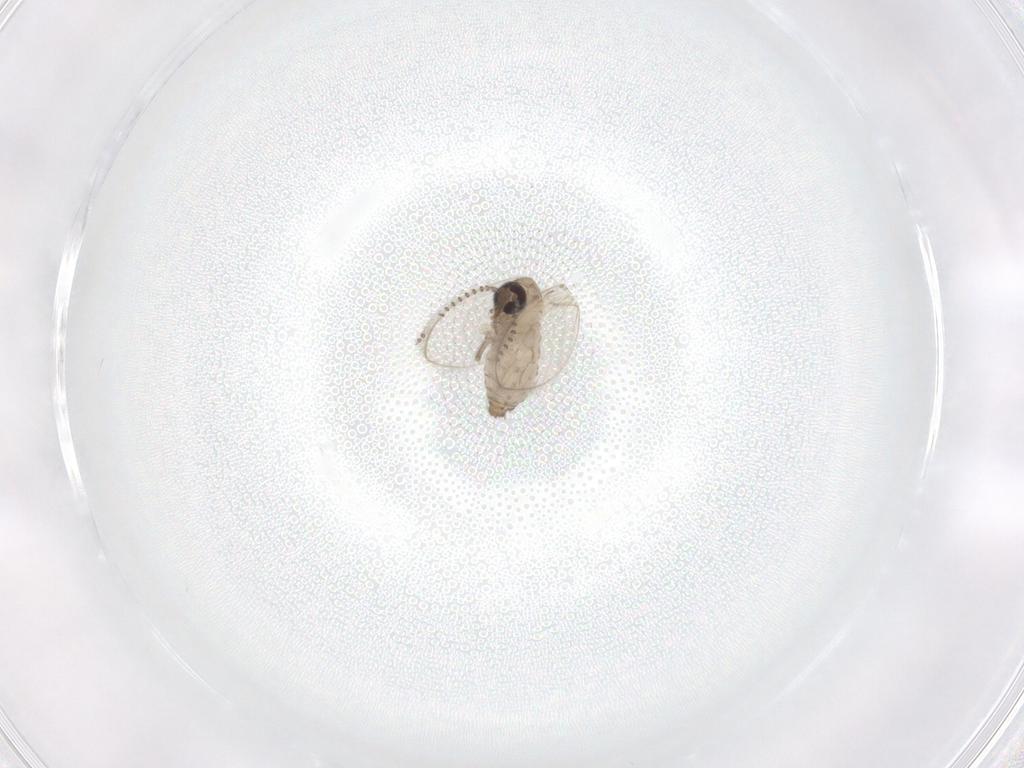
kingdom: Animalia
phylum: Arthropoda
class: Insecta
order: Diptera
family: Psychodidae
